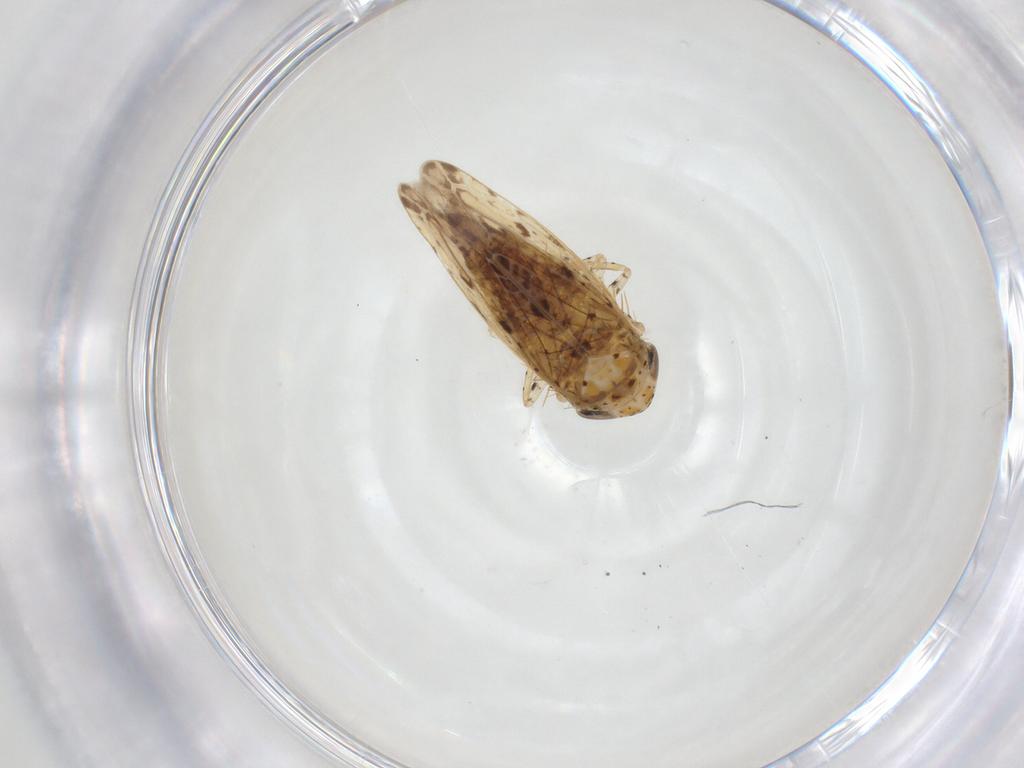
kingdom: Animalia
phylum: Arthropoda
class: Insecta
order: Hemiptera
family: Cicadellidae
